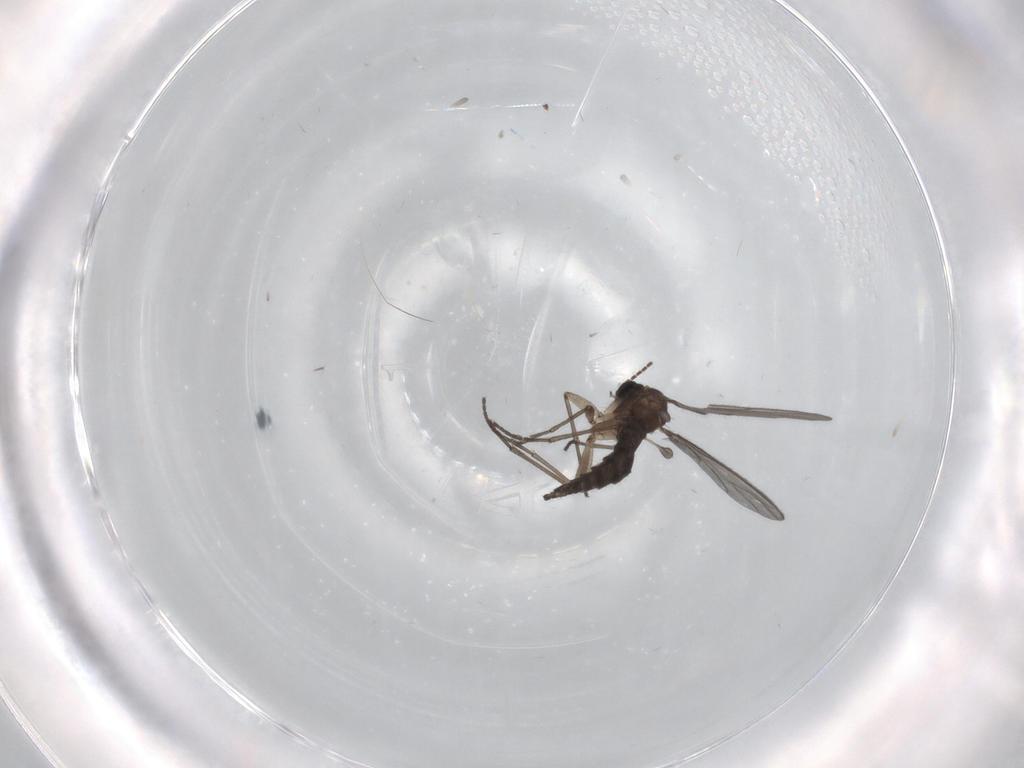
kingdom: Animalia
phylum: Arthropoda
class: Insecta
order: Diptera
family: Sciaridae
